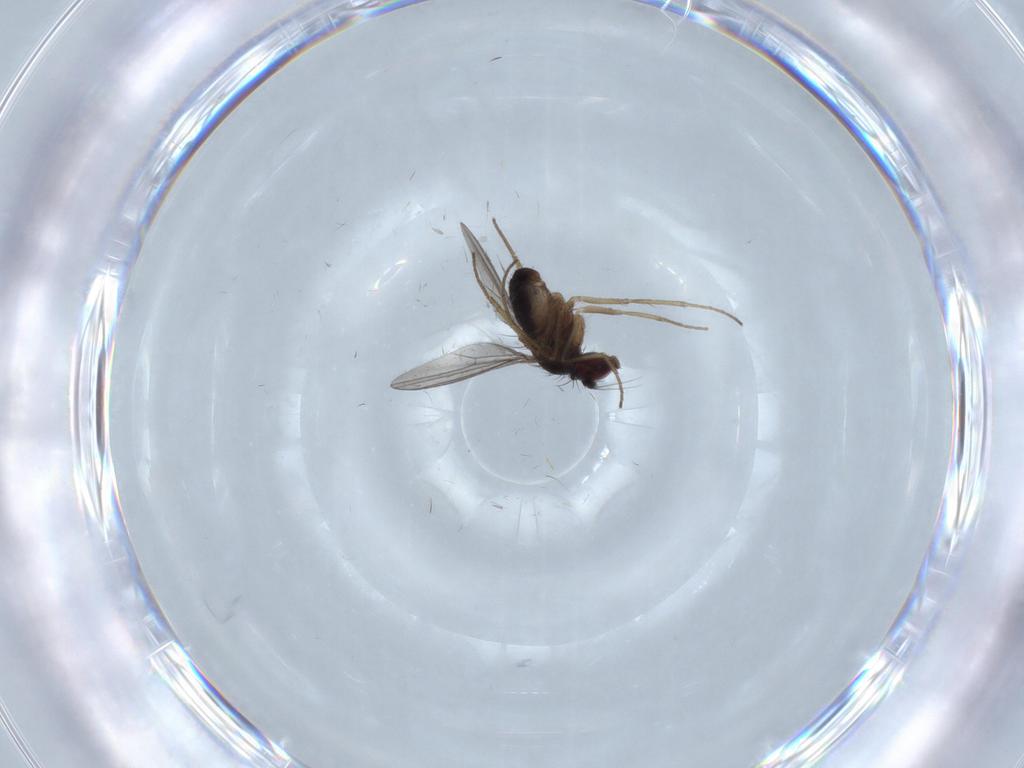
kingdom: Animalia
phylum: Arthropoda
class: Insecta
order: Diptera
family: Dolichopodidae
